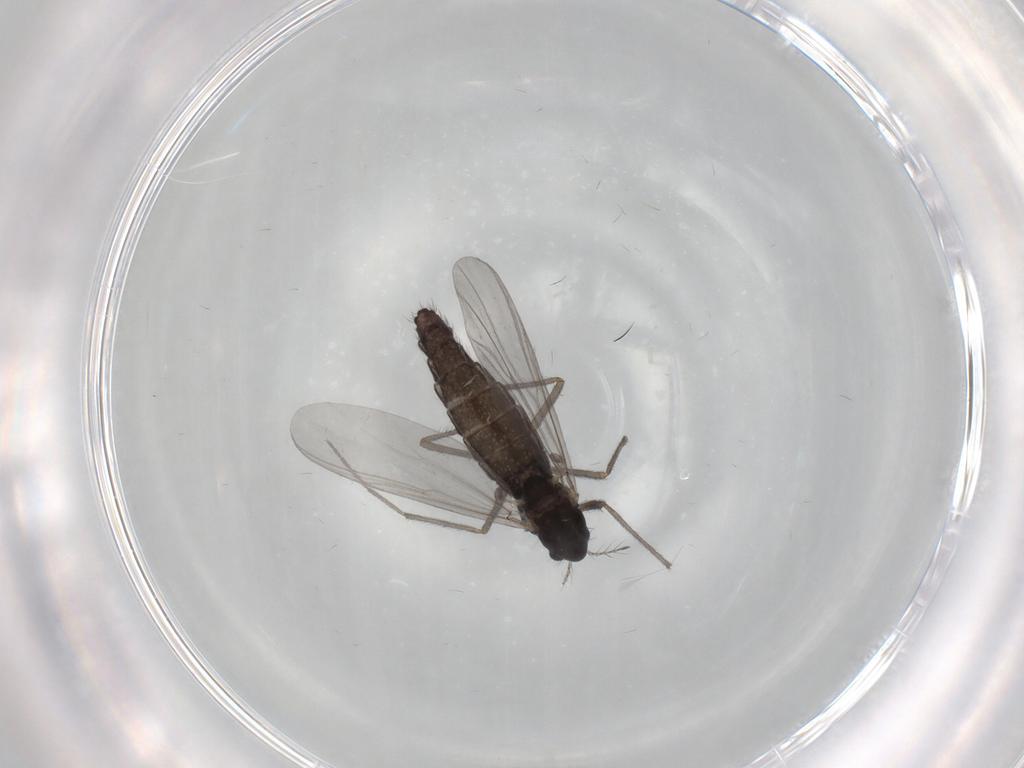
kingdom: Animalia
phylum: Arthropoda
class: Insecta
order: Diptera
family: Chironomidae
